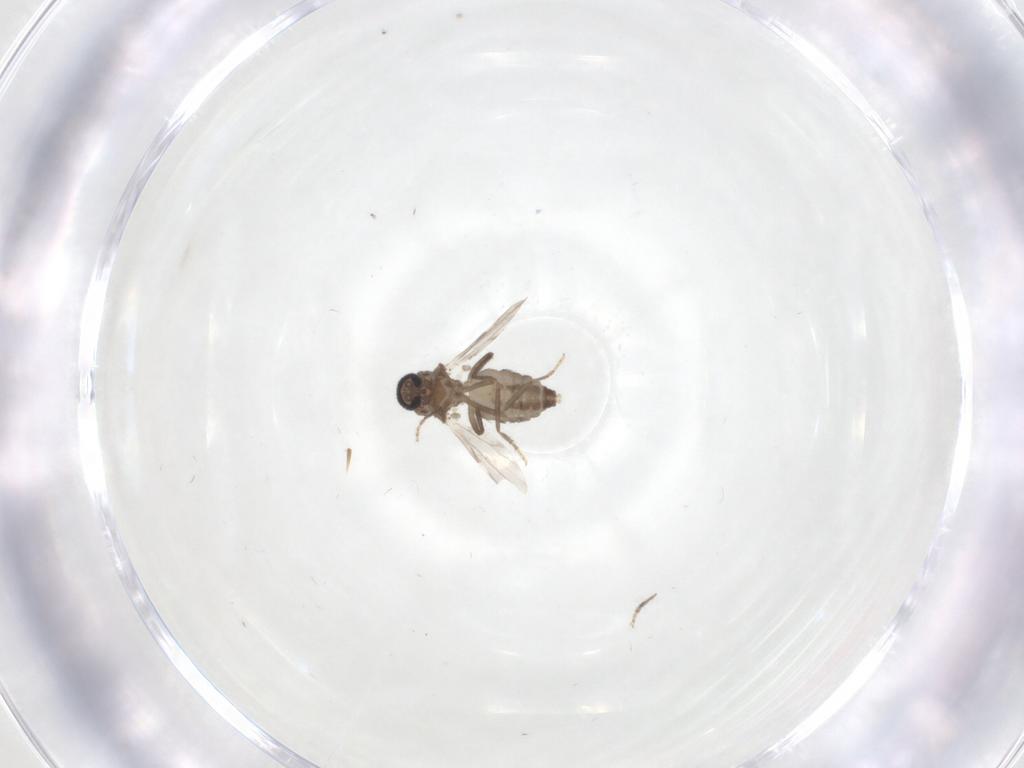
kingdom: Animalia
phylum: Arthropoda
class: Insecta
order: Diptera
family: Ceratopogonidae
